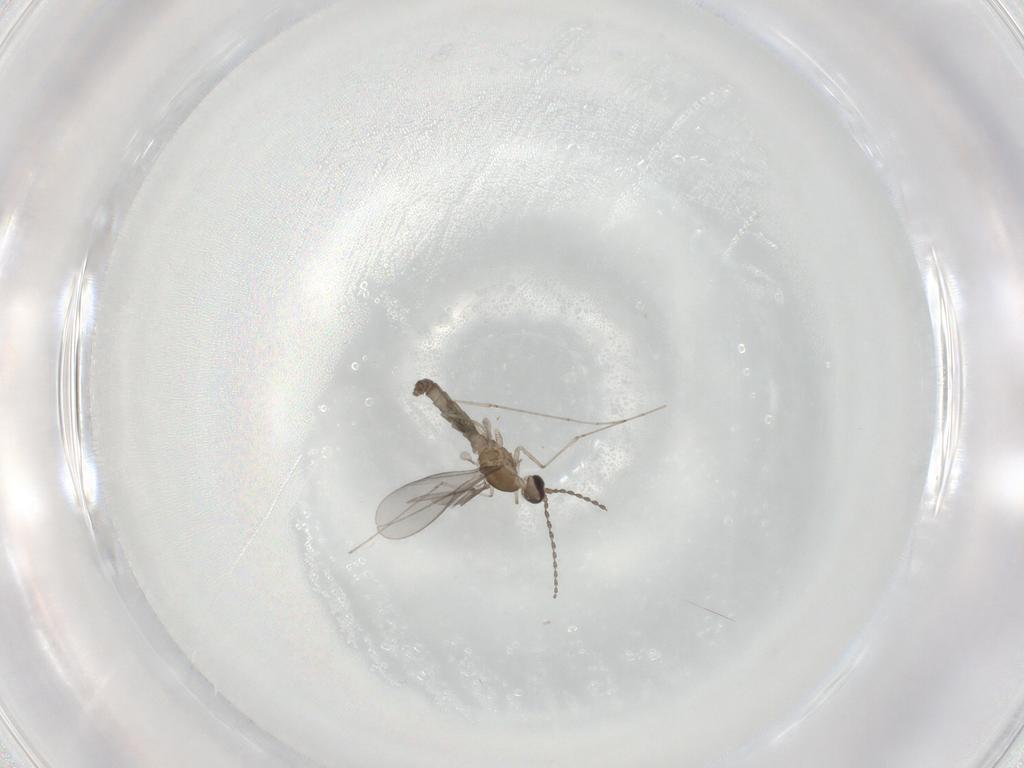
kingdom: Animalia
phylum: Arthropoda
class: Insecta
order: Diptera
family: Cecidomyiidae
